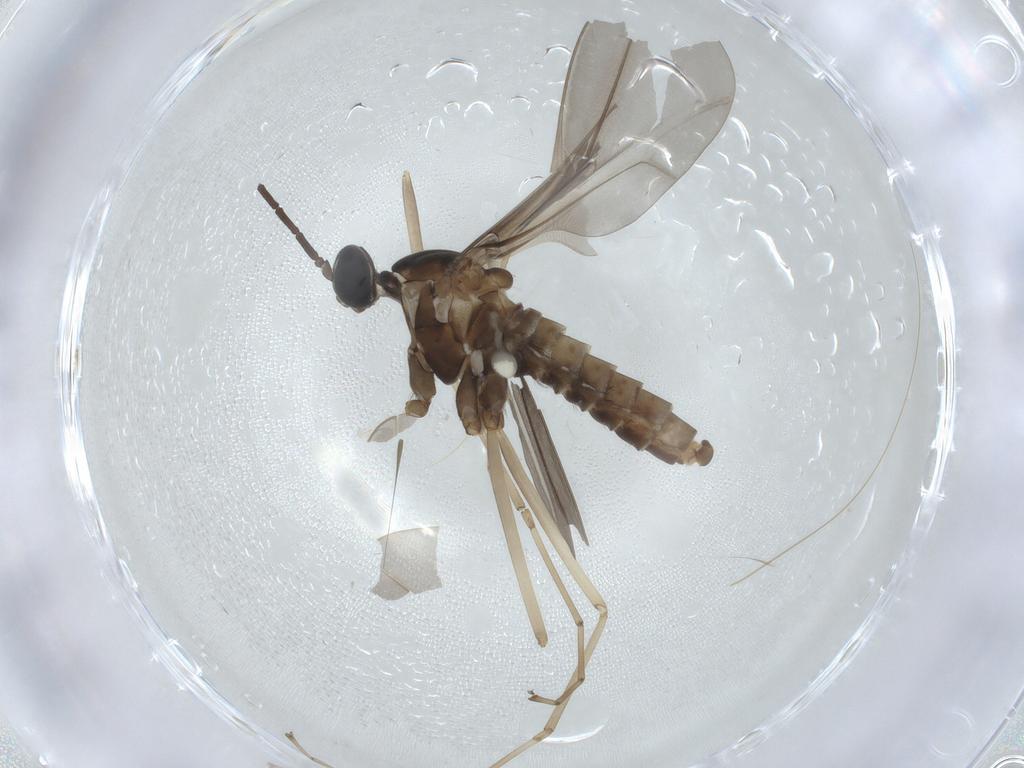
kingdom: Animalia
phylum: Arthropoda
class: Insecta
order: Diptera
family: Cecidomyiidae
